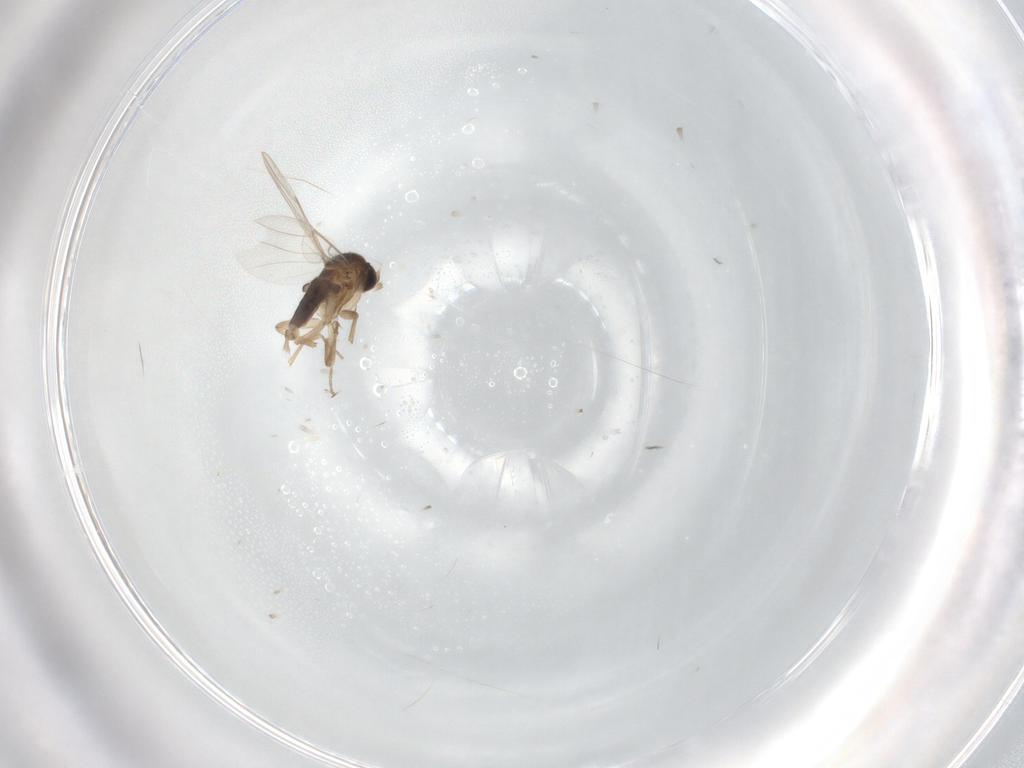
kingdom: Animalia
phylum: Arthropoda
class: Insecta
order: Diptera
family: Phoridae
